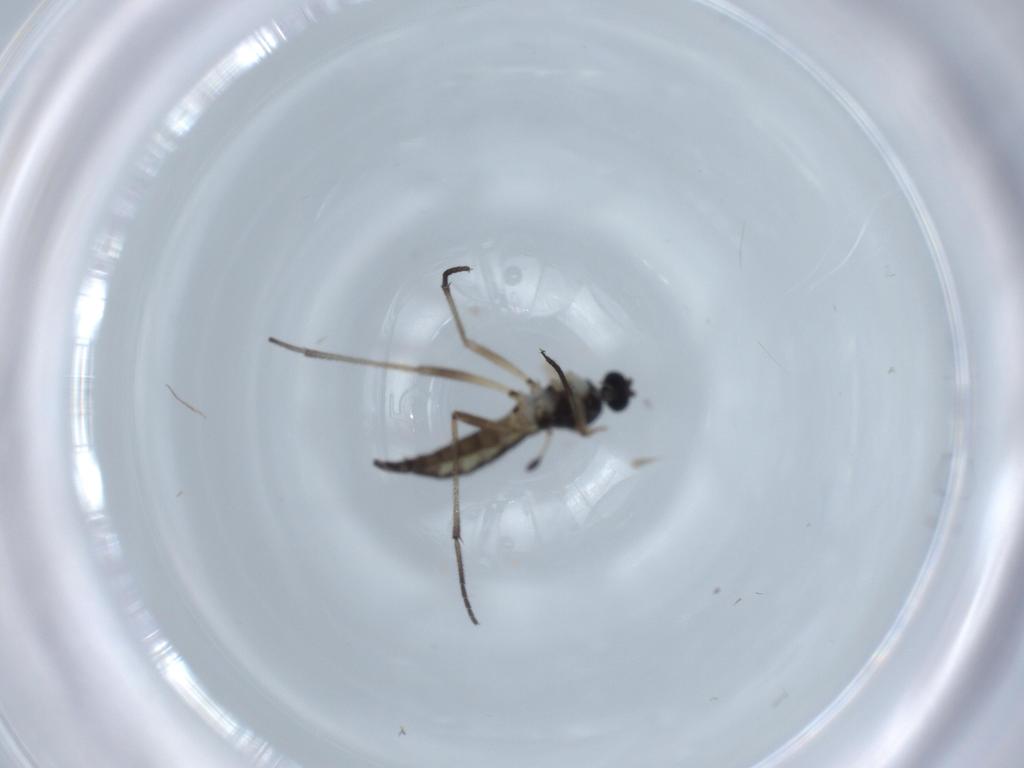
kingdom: Animalia
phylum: Arthropoda
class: Insecta
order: Diptera
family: Sciaridae
